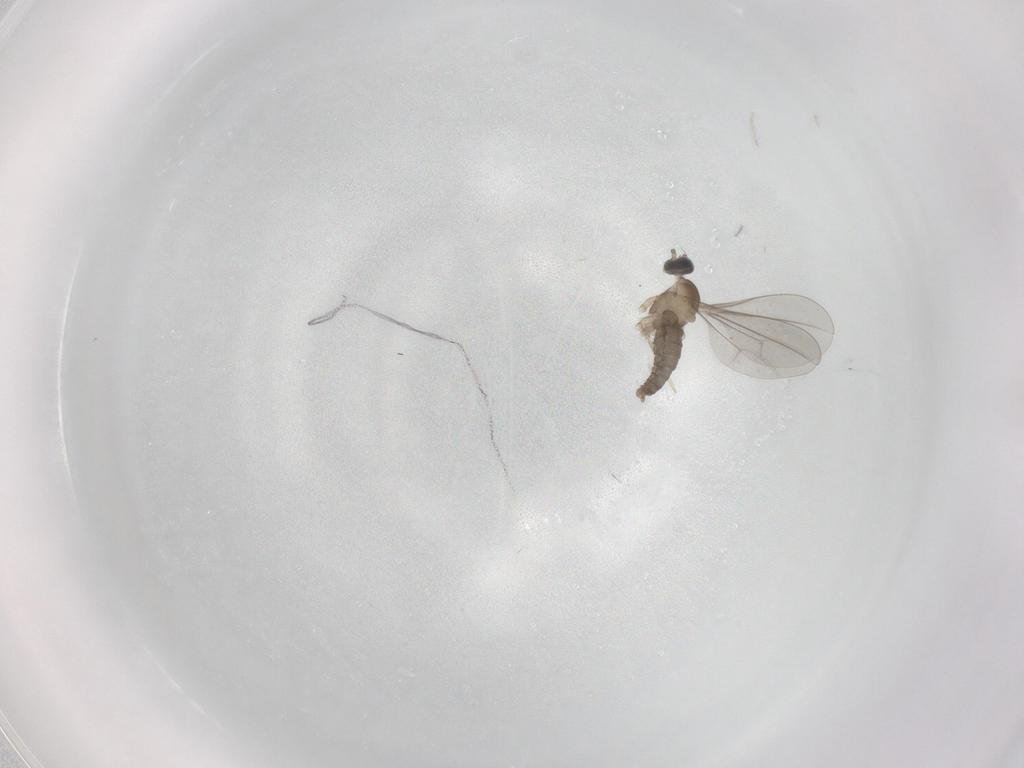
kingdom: Animalia
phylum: Arthropoda
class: Insecta
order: Diptera
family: Cecidomyiidae
